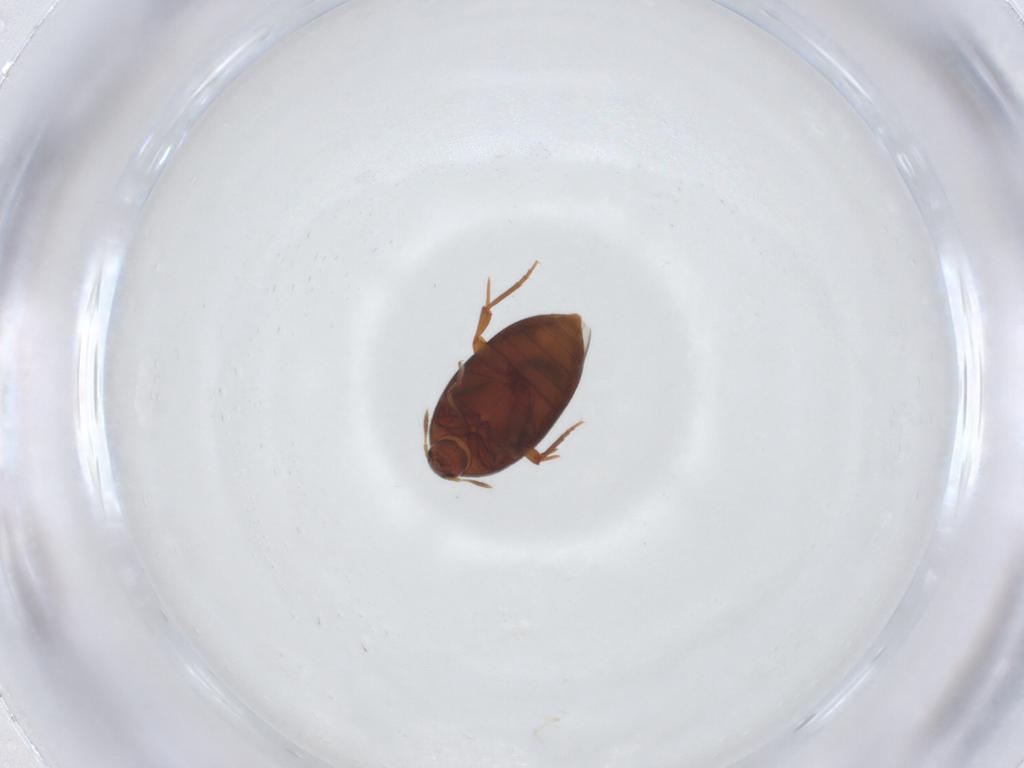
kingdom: Animalia
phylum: Arthropoda
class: Insecta
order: Coleoptera
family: Melandryidae
